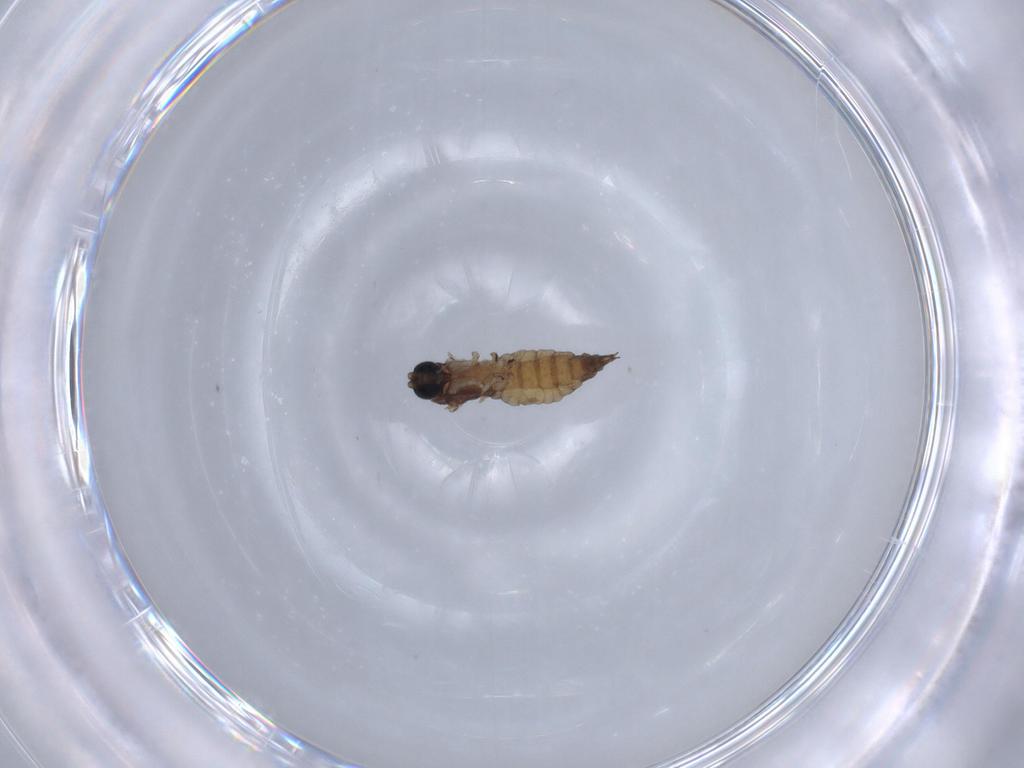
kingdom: Animalia
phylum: Arthropoda
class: Insecta
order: Diptera
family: Sciaridae
